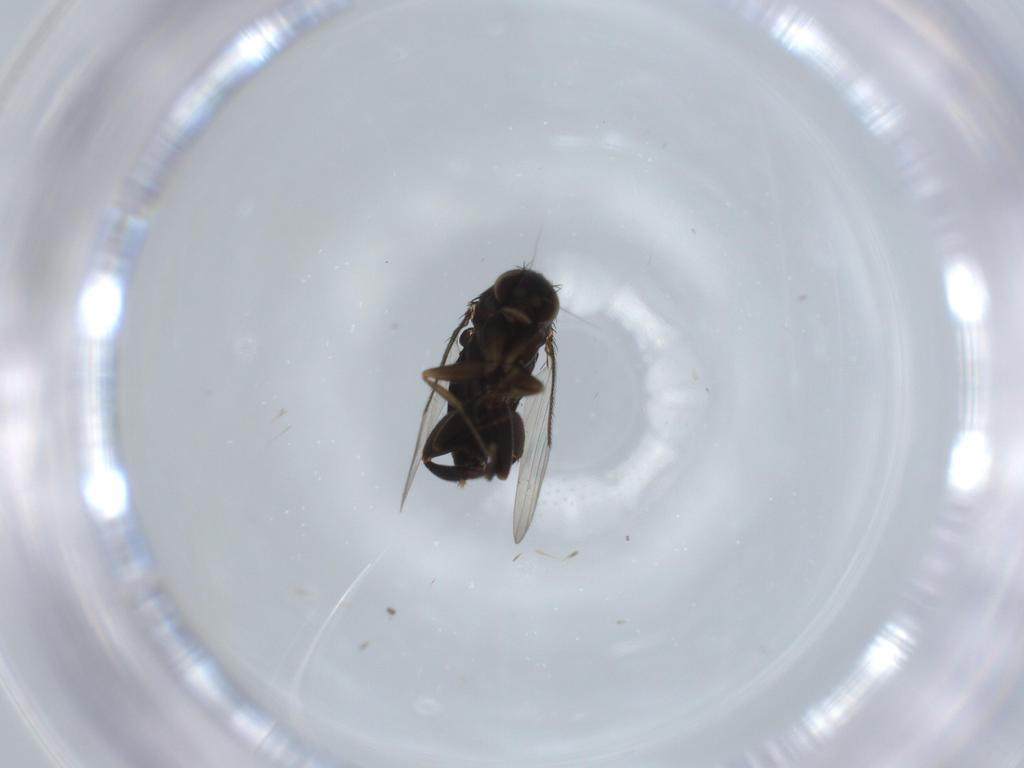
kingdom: Animalia
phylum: Arthropoda
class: Insecta
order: Diptera
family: Phoridae
